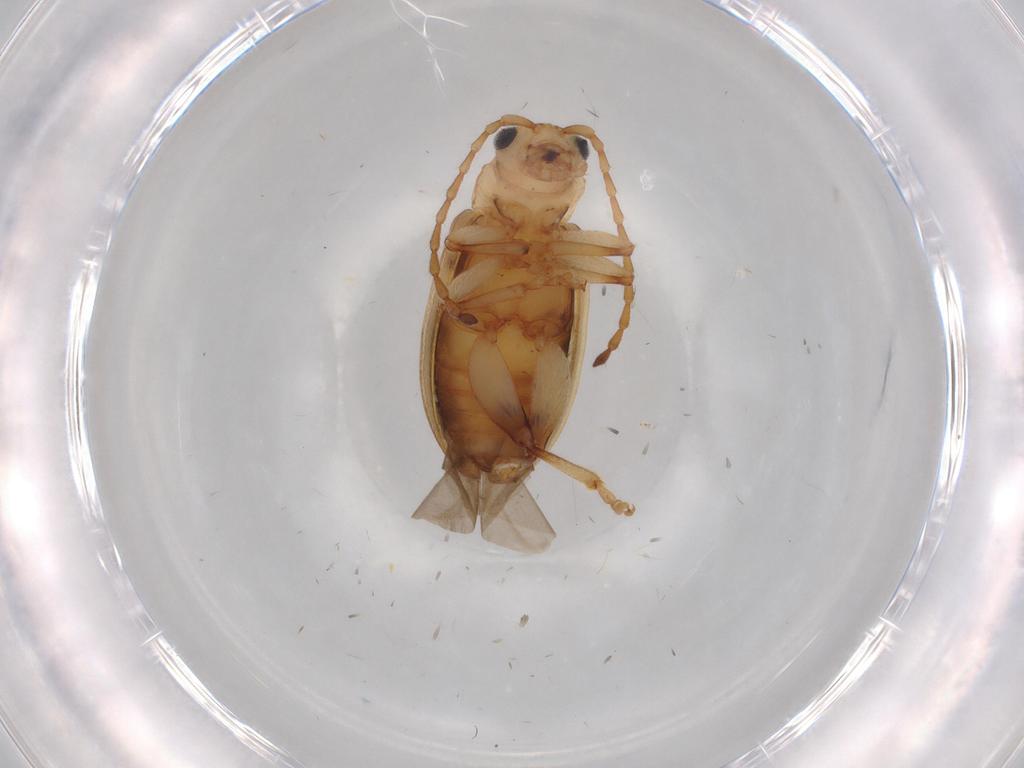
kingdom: Animalia
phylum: Arthropoda
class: Insecta
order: Coleoptera
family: Chrysomelidae
